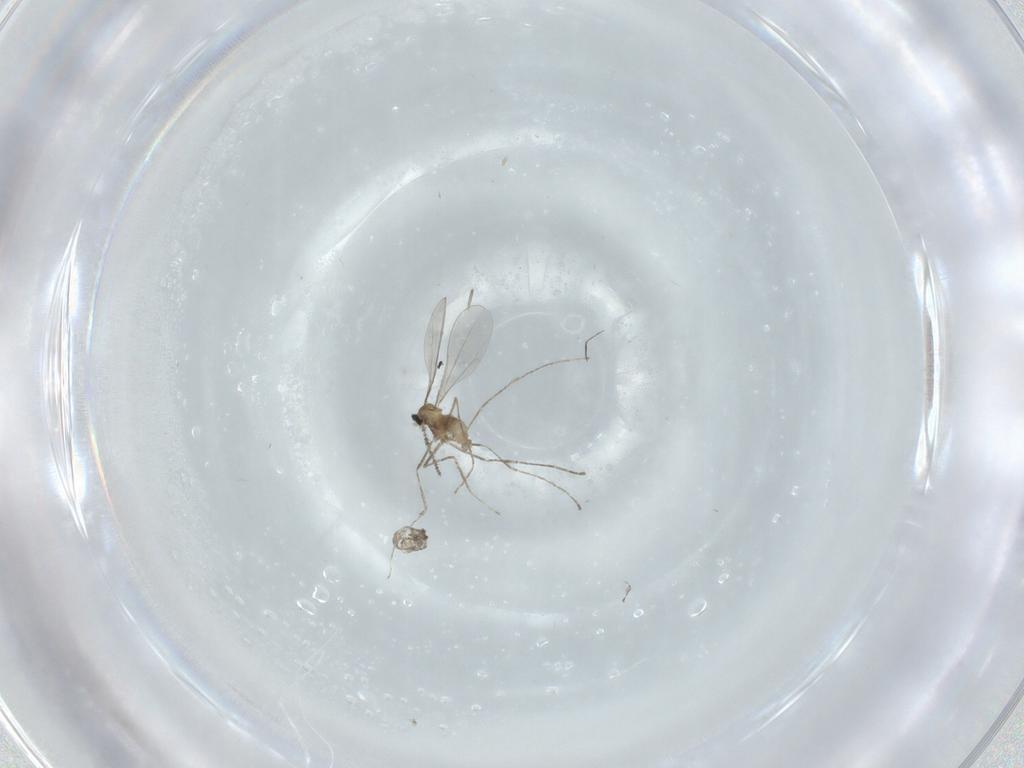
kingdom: Animalia
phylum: Arthropoda
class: Insecta
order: Diptera
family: Cecidomyiidae
